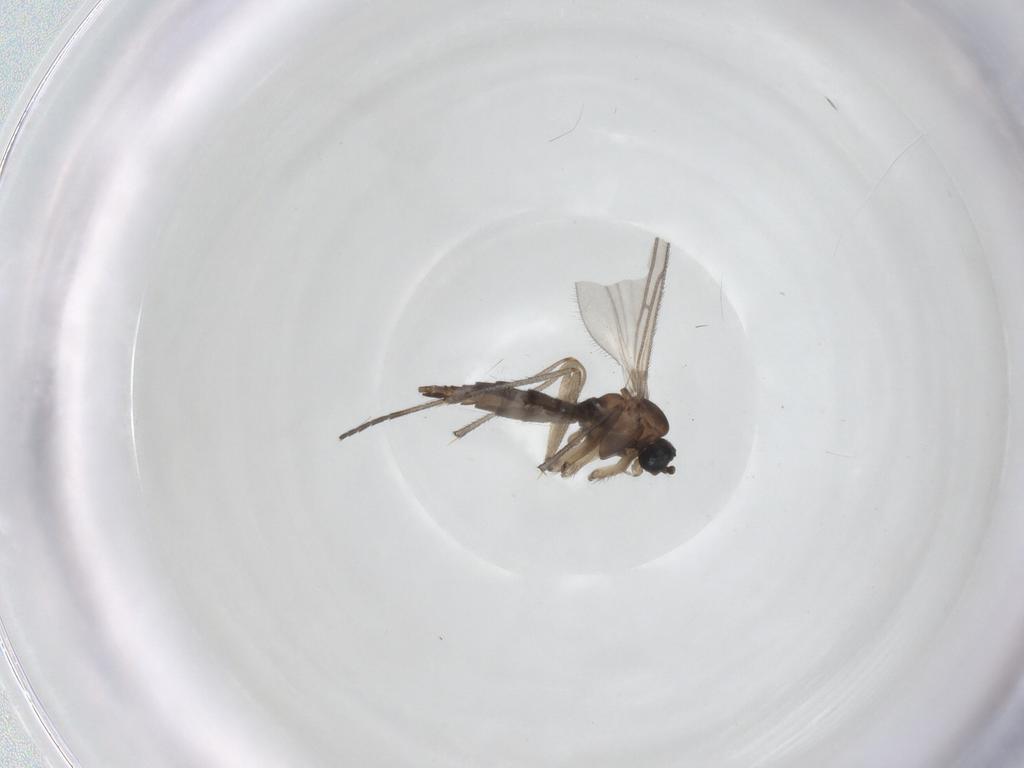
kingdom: Animalia
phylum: Arthropoda
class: Insecta
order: Diptera
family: Sciaridae
